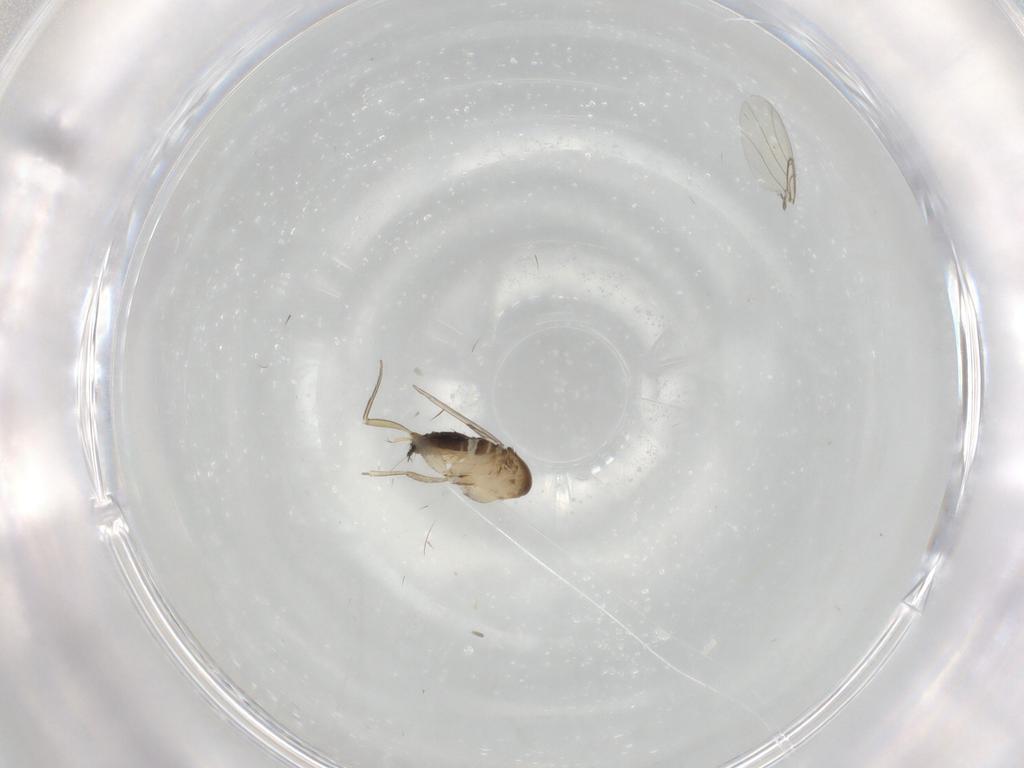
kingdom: Animalia
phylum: Arthropoda
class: Insecta
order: Diptera
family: Phoridae
